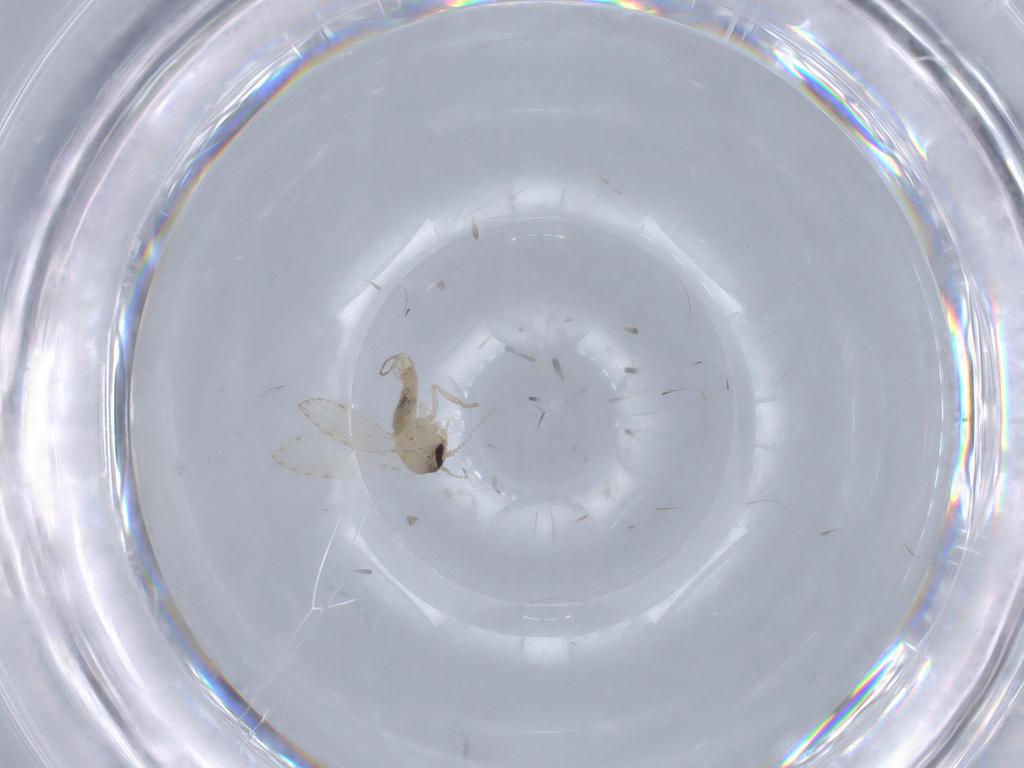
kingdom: Animalia
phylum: Arthropoda
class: Insecta
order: Diptera
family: Psychodidae
